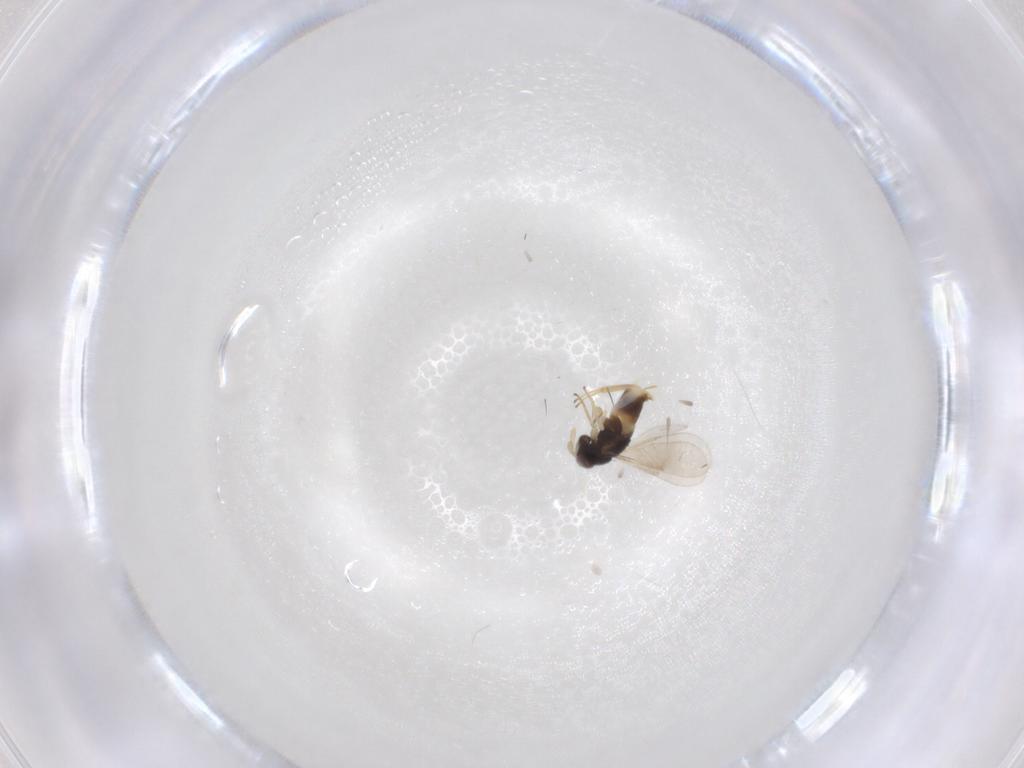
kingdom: Animalia
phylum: Arthropoda
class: Insecta
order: Hymenoptera
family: Aphelinidae
